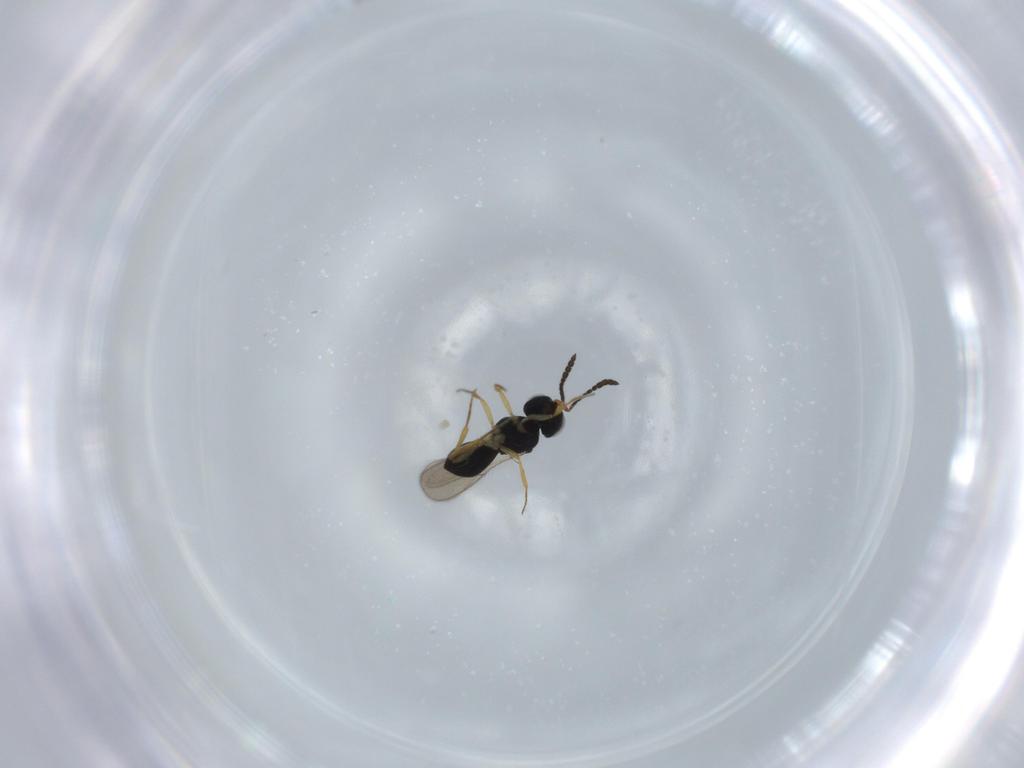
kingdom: Animalia
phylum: Arthropoda
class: Insecta
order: Hymenoptera
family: Scelionidae
